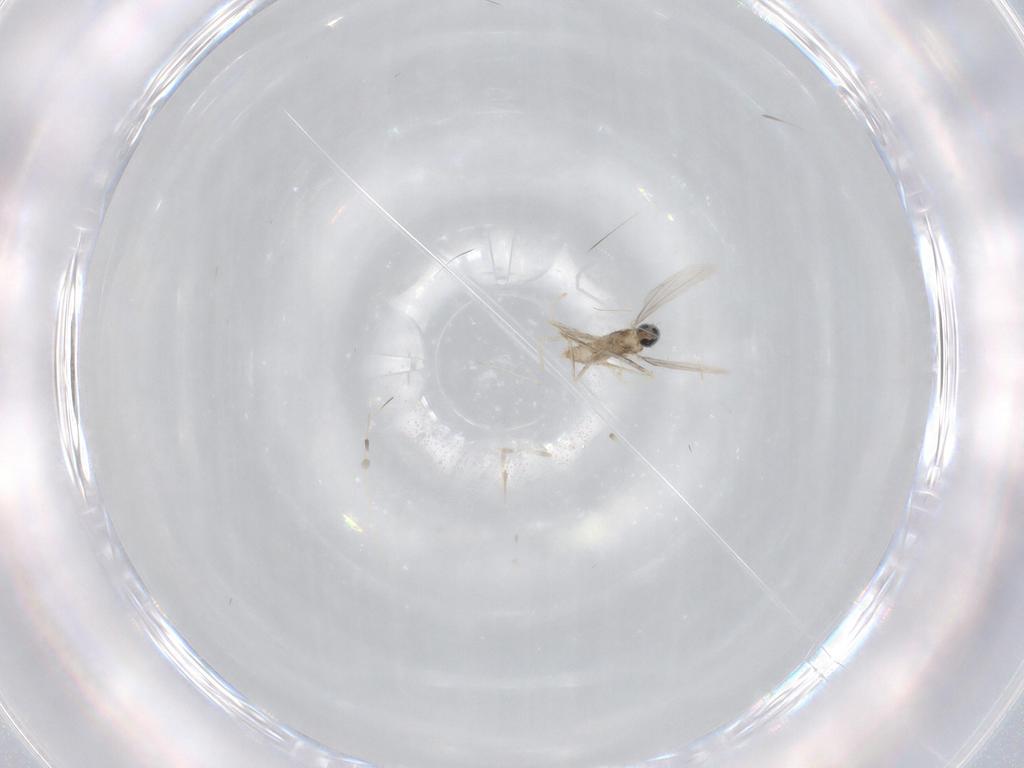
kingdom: Animalia
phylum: Arthropoda
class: Insecta
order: Diptera
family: Cecidomyiidae
